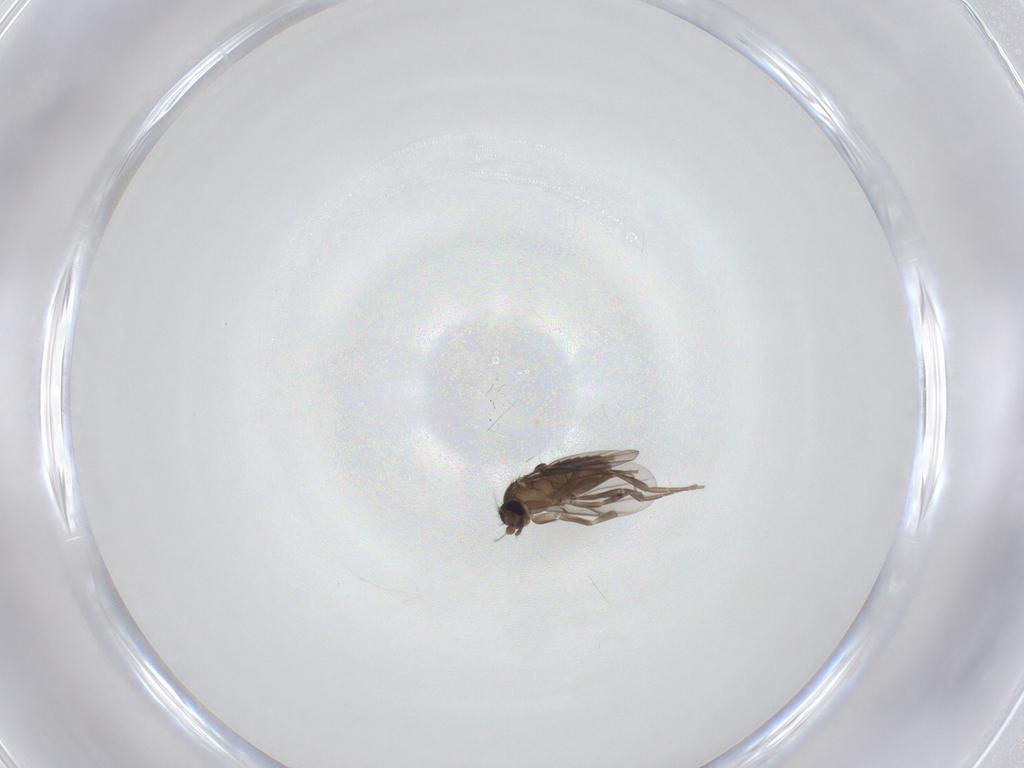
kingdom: Animalia
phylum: Arthropoda
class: Insecta
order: Diptera
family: Phoridae
